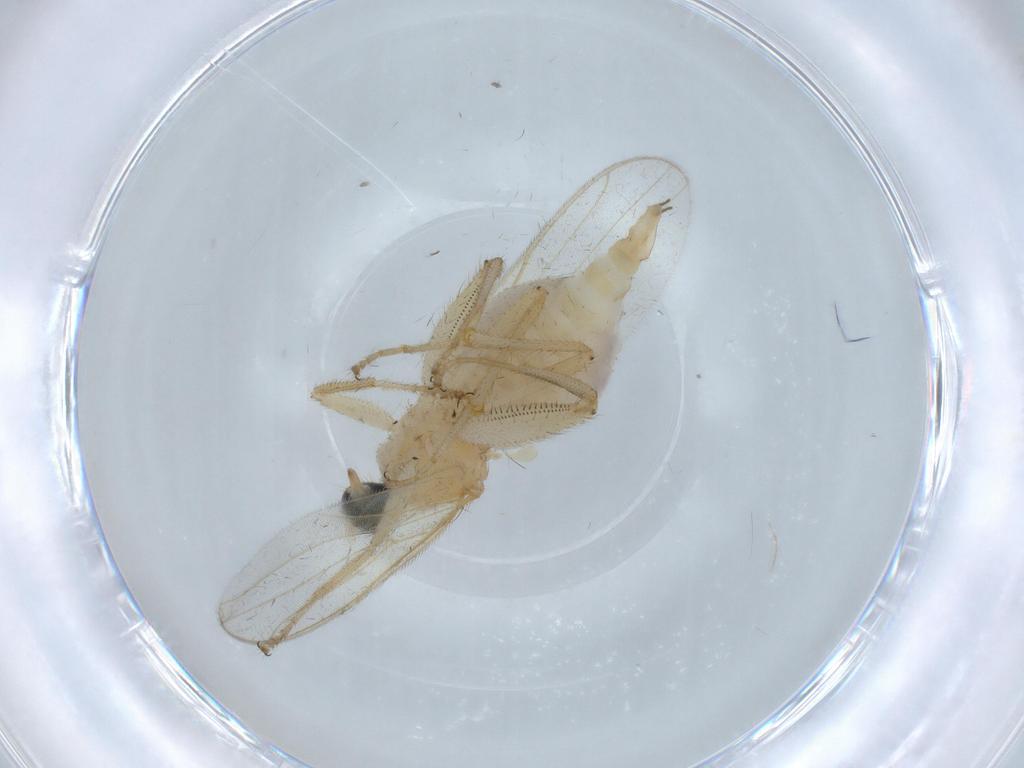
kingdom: Animalia
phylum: Arthropoda
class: Insecta
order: Diptera
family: Hybotidae
